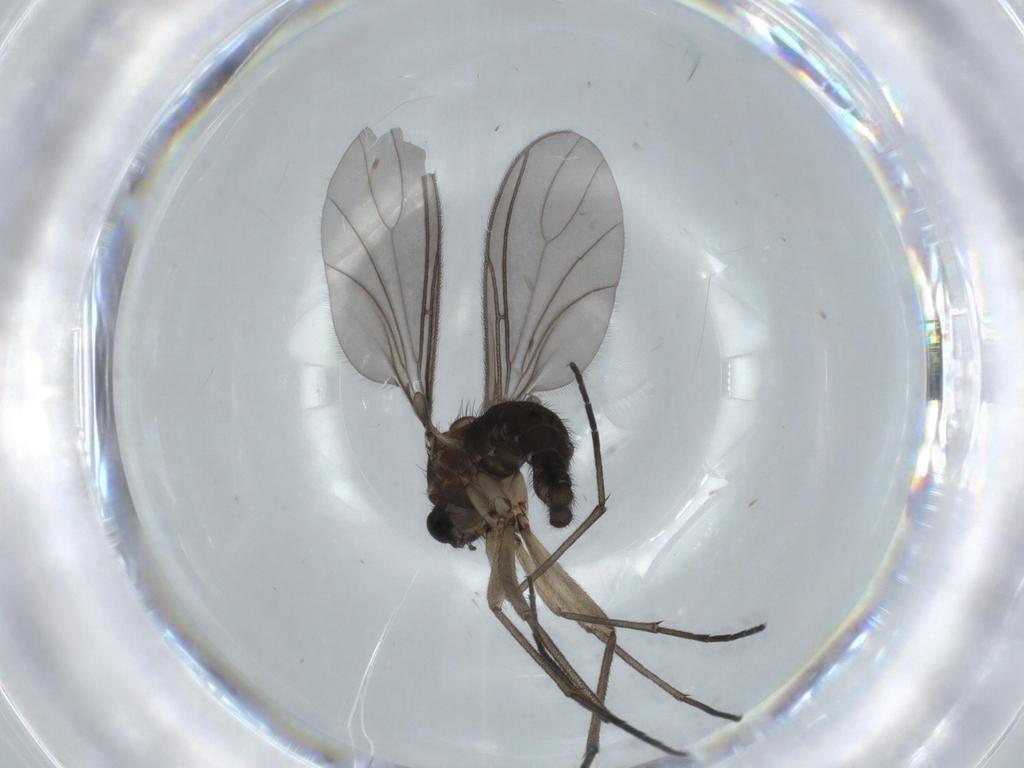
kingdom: Animalia
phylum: Arthropoda
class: Insecta
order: Diptera
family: Sciaridae
